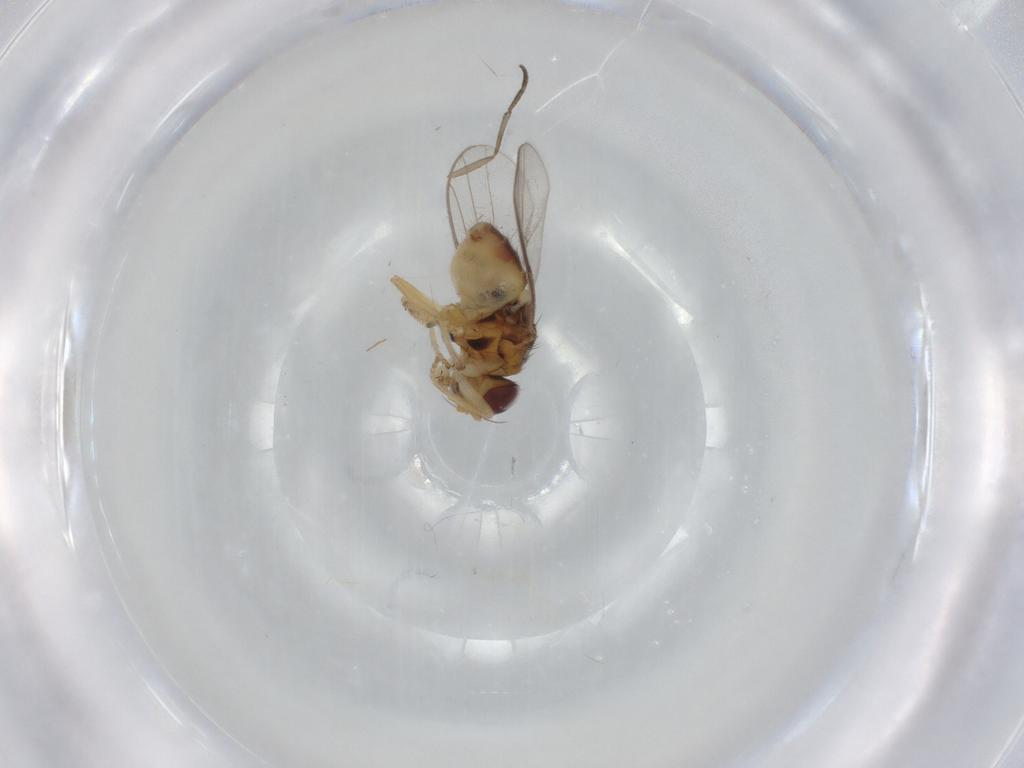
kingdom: Animalia
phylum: Arthropoda
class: Insecta
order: Diptera
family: Chloropidae
